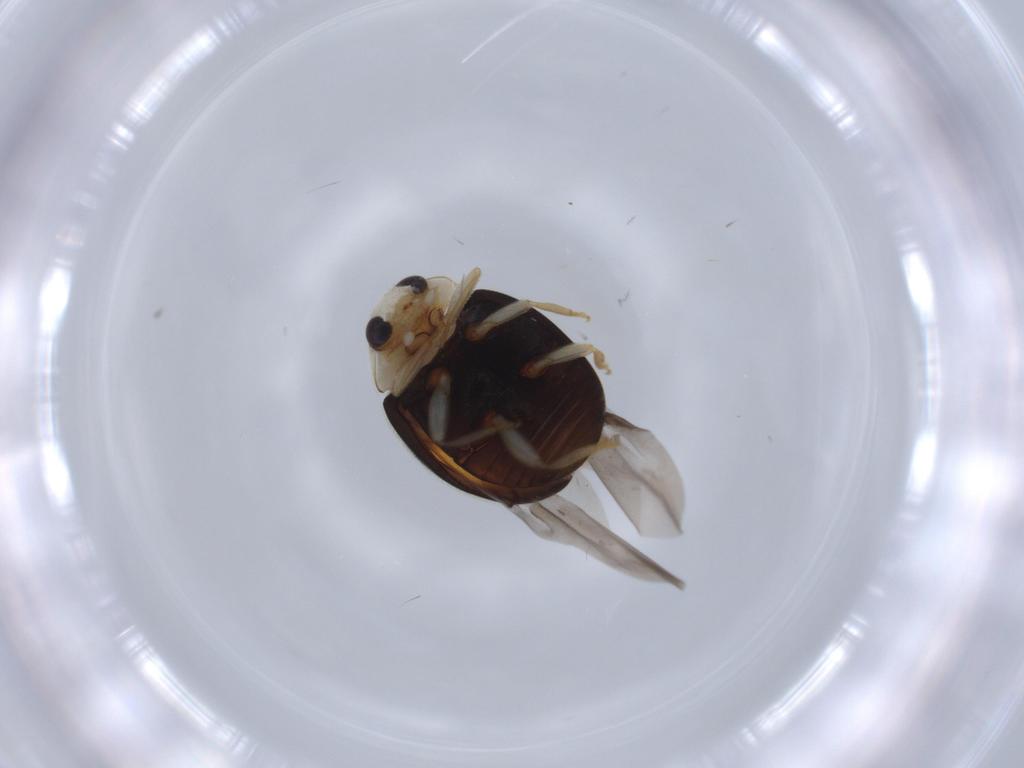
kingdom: Animalia
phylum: Arthropoda
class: Insecta
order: Coleoptera
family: Coccinellidae
